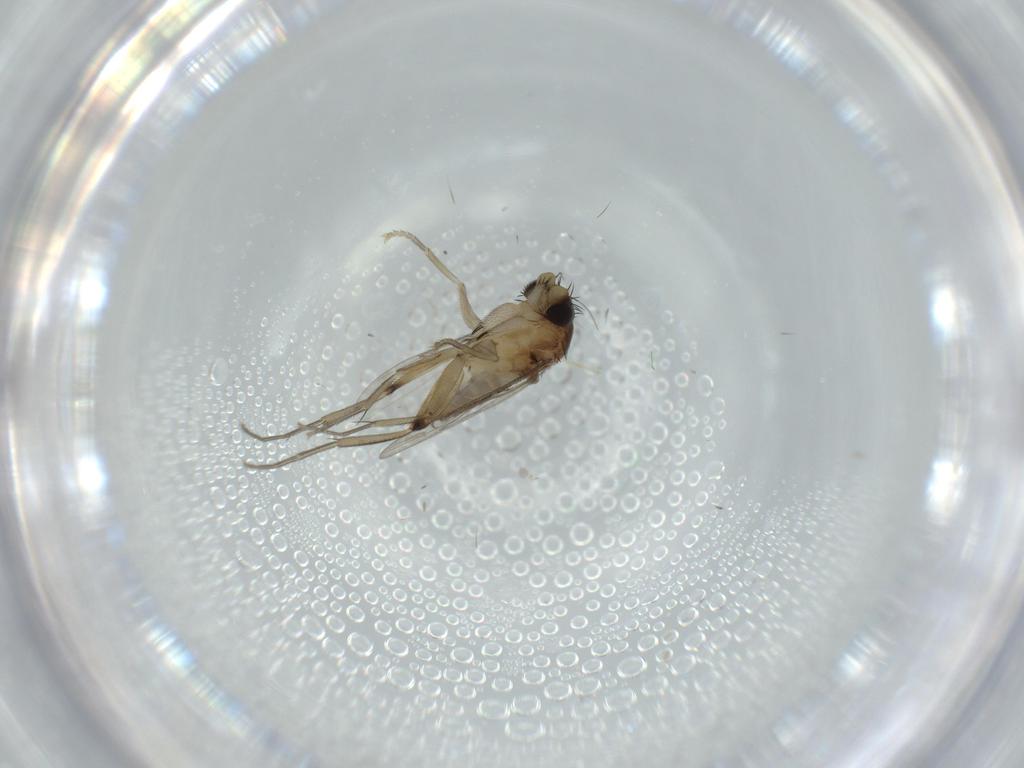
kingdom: Animalia
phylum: Arthropoda
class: Insecta
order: Diptera
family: Phoridae
